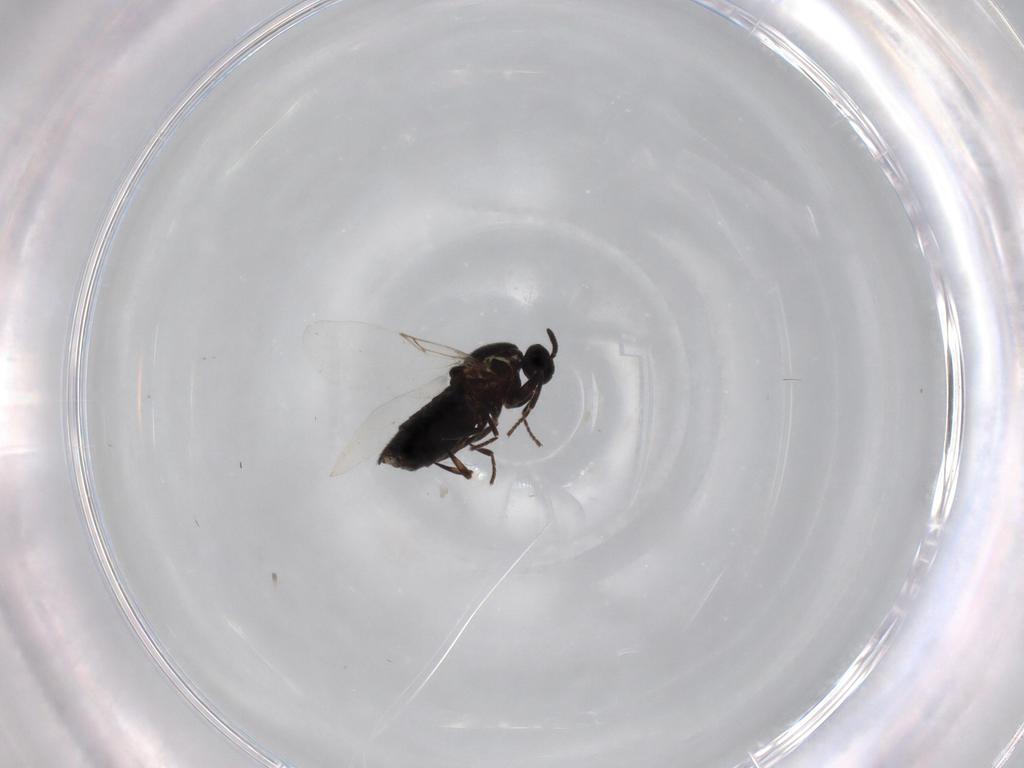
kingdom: Animalia
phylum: Arthropoda
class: Insecta
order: Diptera
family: Scatopsidae
